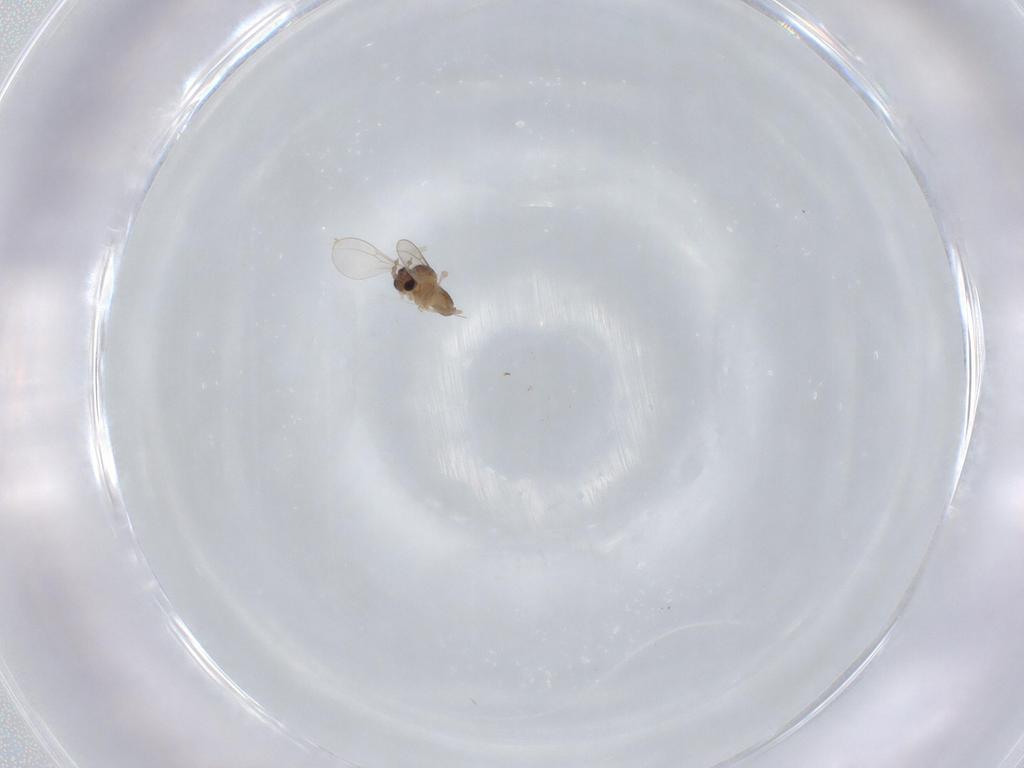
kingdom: Animalia
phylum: Arthropoda
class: Insecta
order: Diptera
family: Cecidomyiidae
